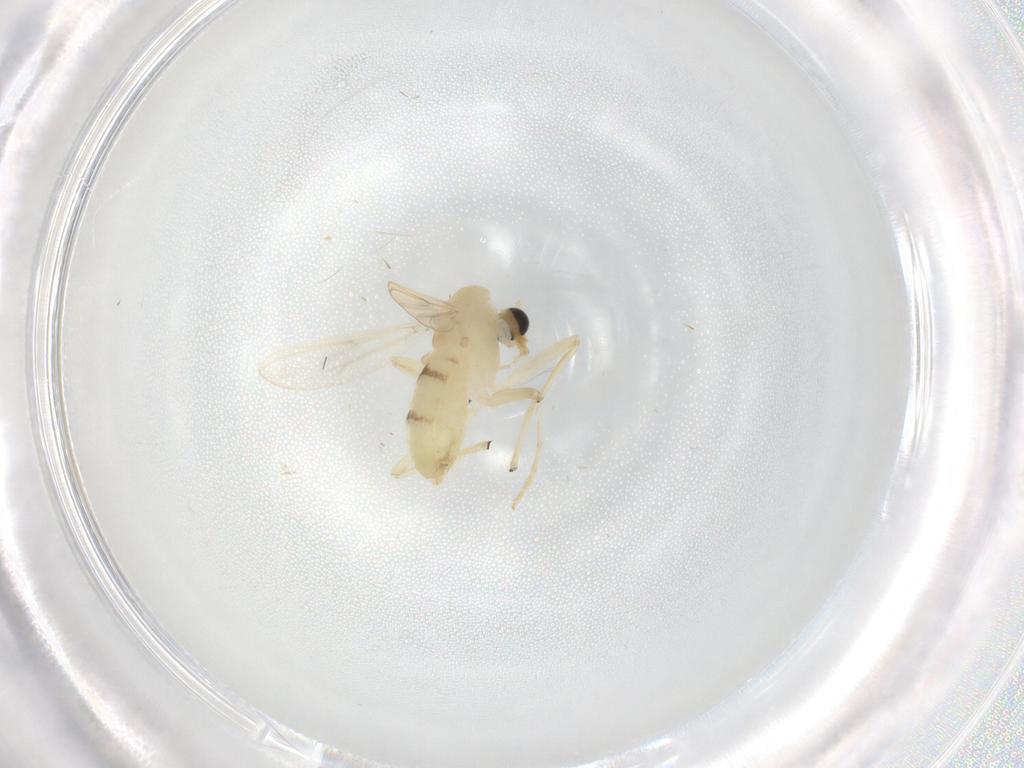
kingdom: Animalia
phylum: Arthropoda
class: Insecta
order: Diptera
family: Chironomidae
